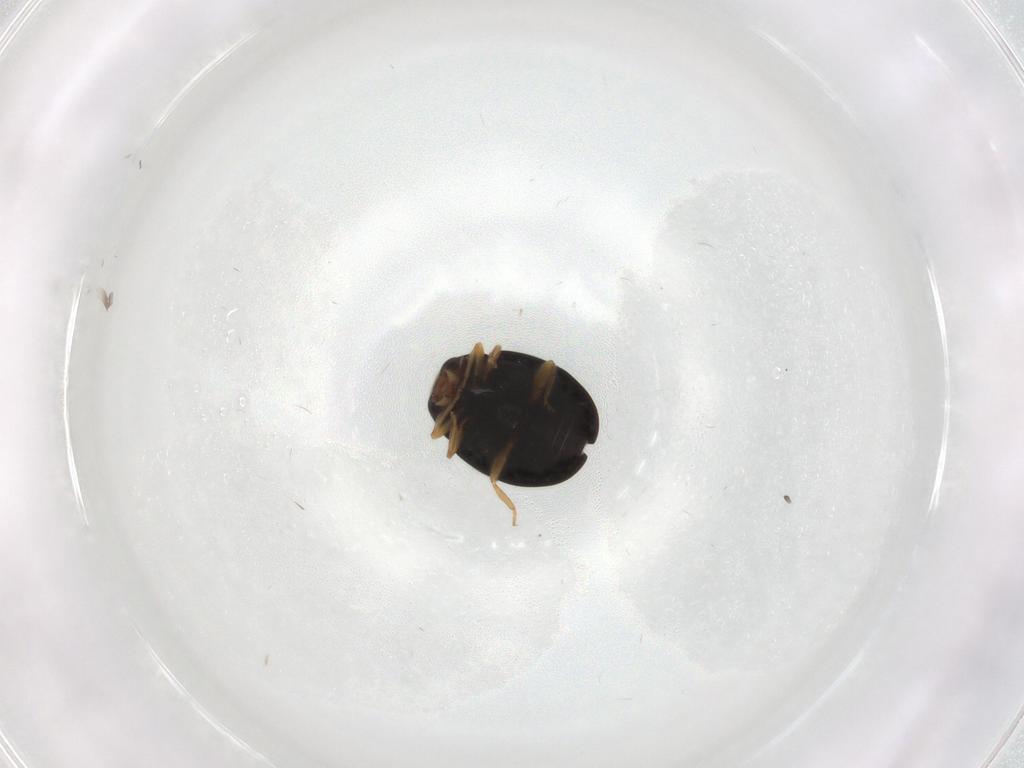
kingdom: Animalia
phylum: Arthropoda
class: Insecta
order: Coleoptera
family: Coccinellidae
